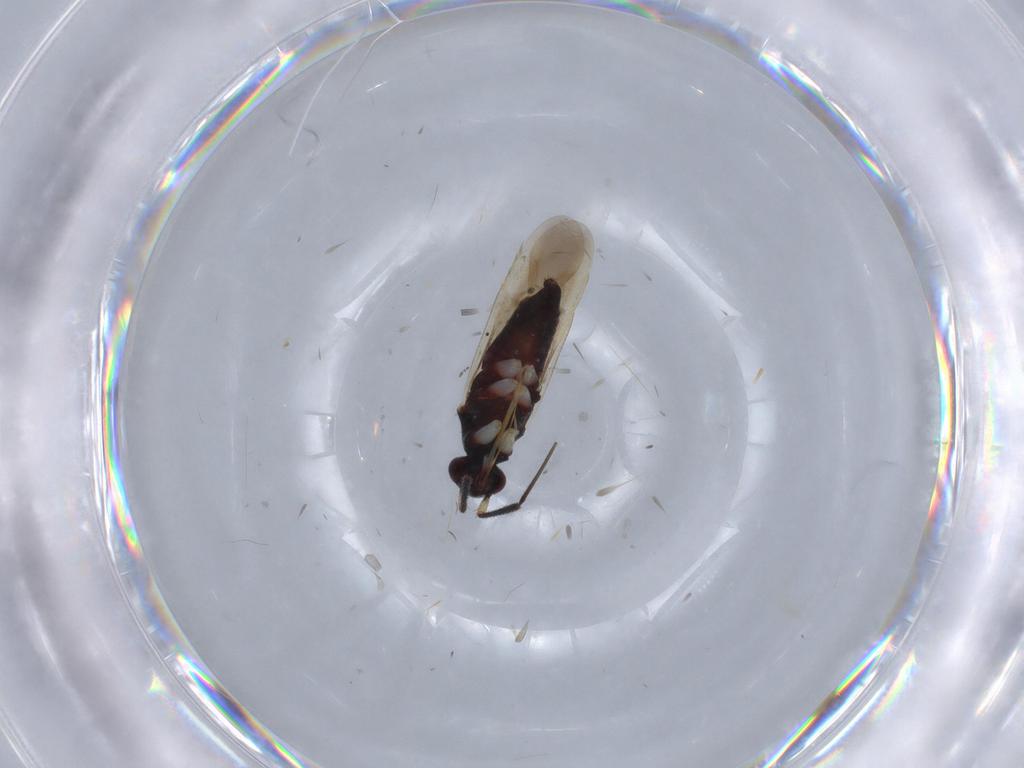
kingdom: Animalia
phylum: Arthropoda
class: Insecta
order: Hemiptera
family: Miridae
